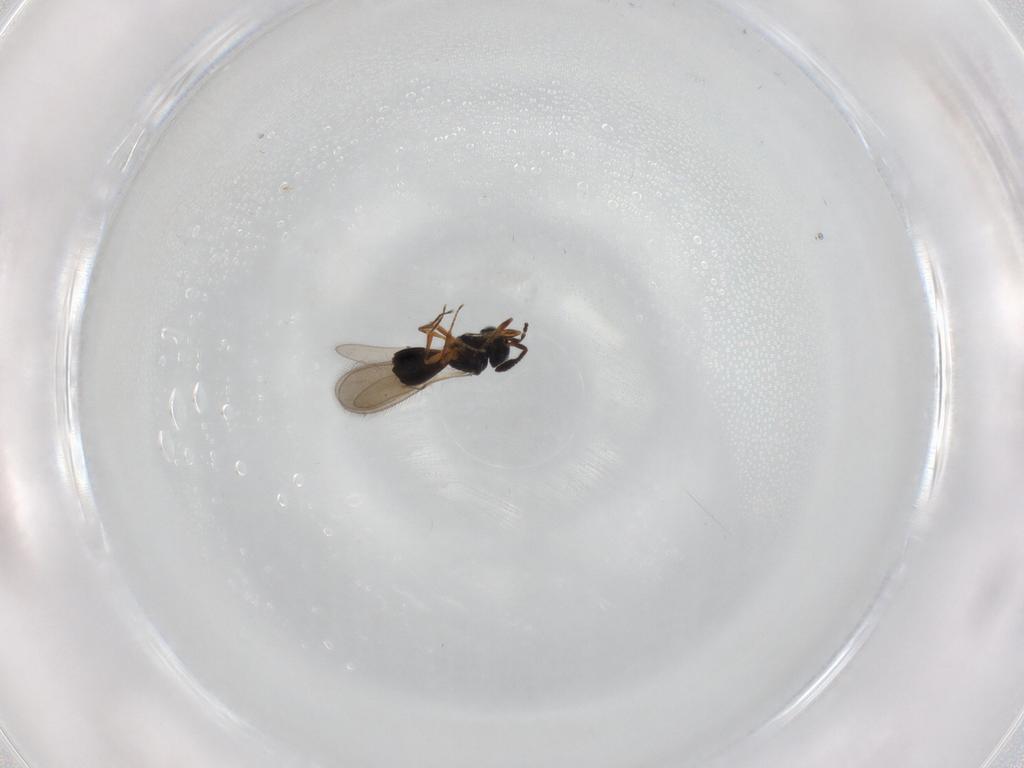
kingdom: Animalia
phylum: Arthropoda
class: Insecta
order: Hymenoptera
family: Scelionidae
